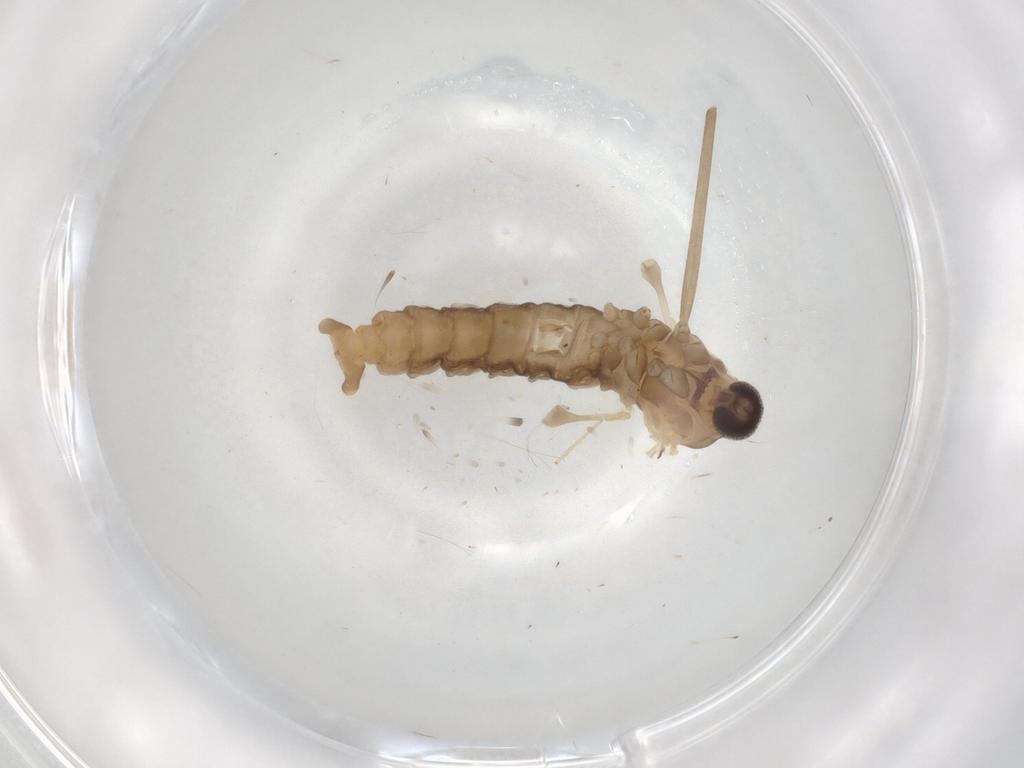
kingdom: Animalia
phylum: Arthropoda
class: Insecta
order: Diptera
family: Cecidomyiidae
